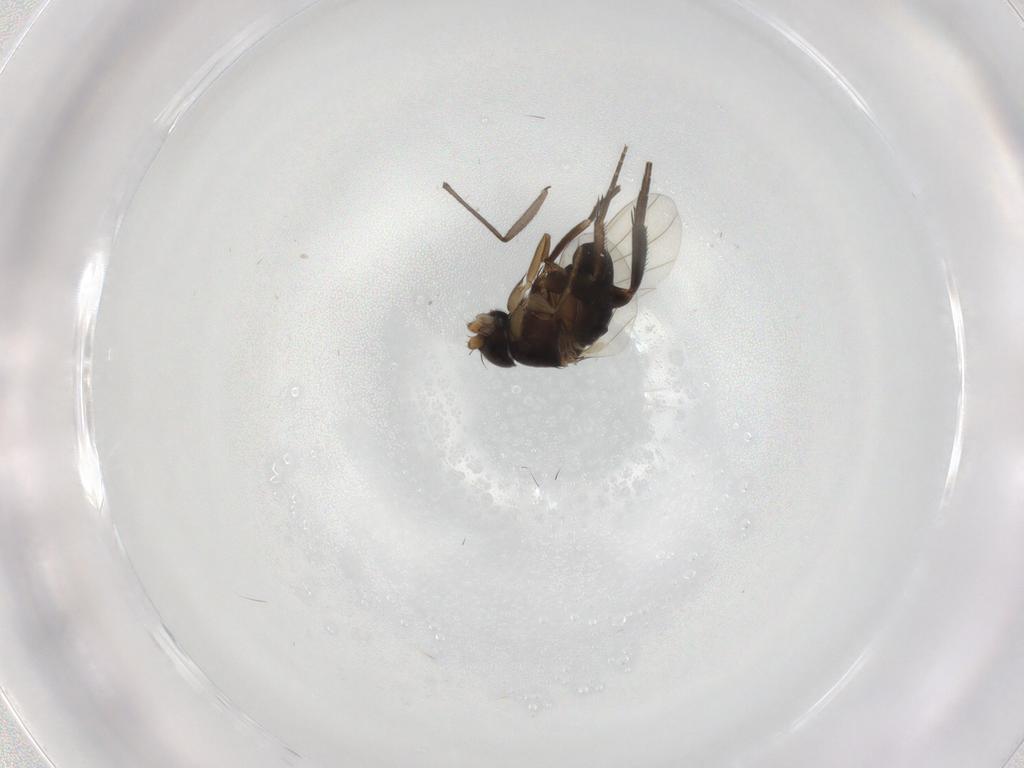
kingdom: Animalia
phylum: Arthropoda
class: Insecta
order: Diptera
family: Phoridae
